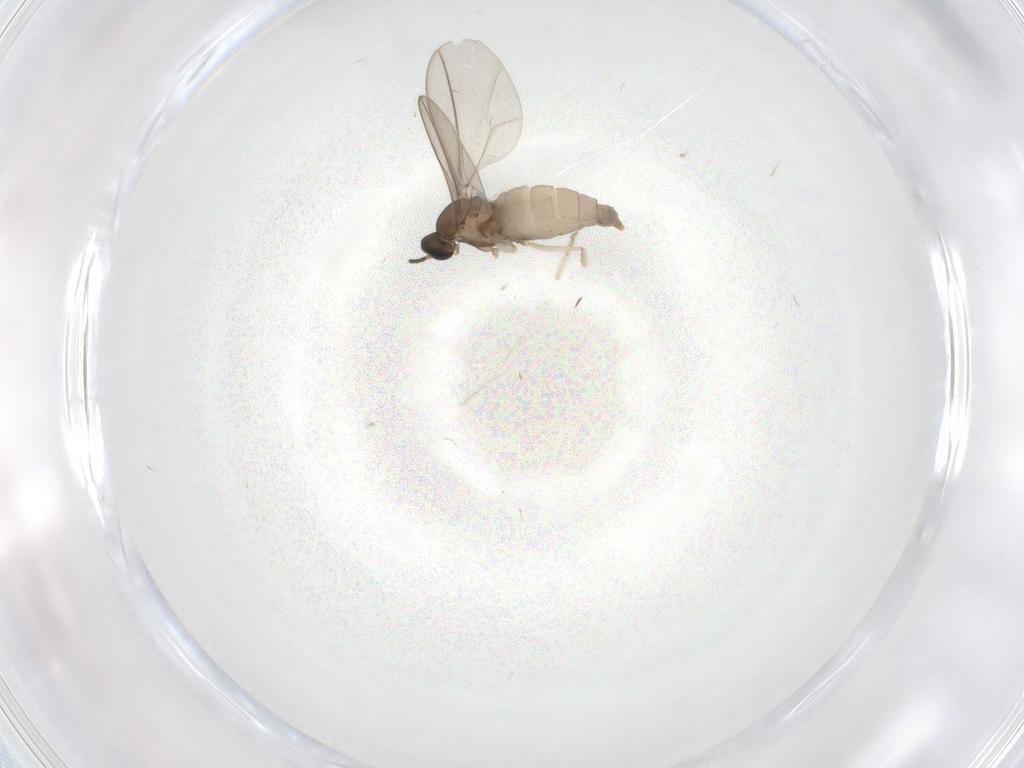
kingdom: Animalia
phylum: Arthropoda
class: Insecta
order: Diptera
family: Cecidomyiidae
